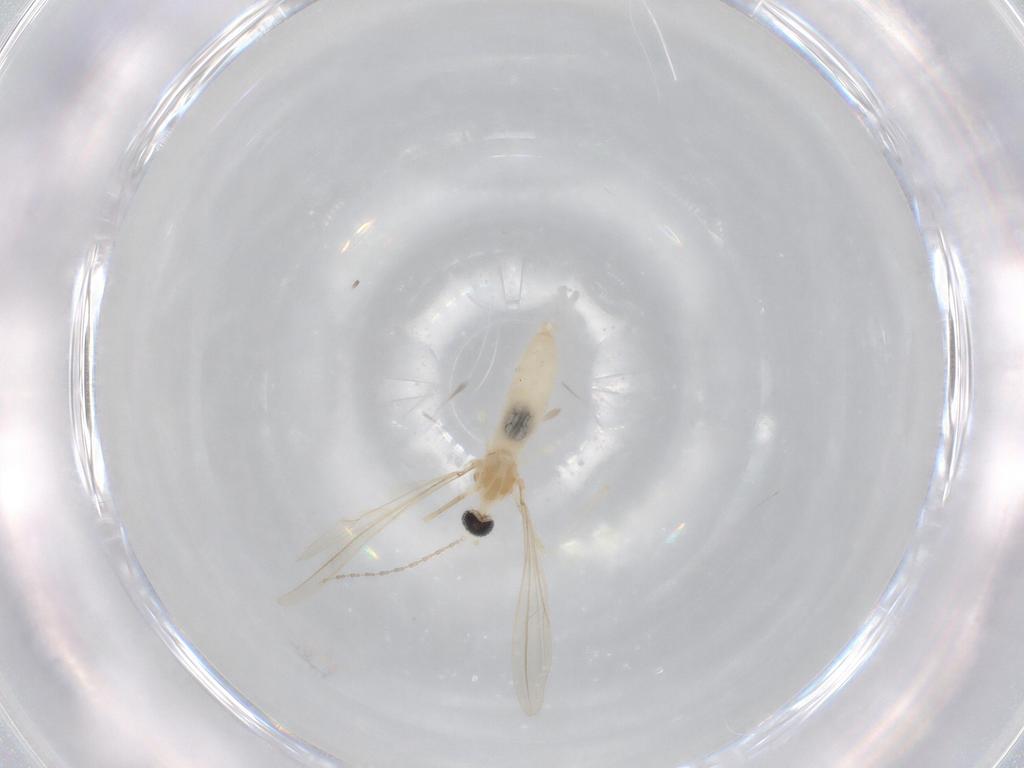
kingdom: Animalia
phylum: Arthropoda
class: Insecta
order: Diptera
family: Cecidomyiidae
